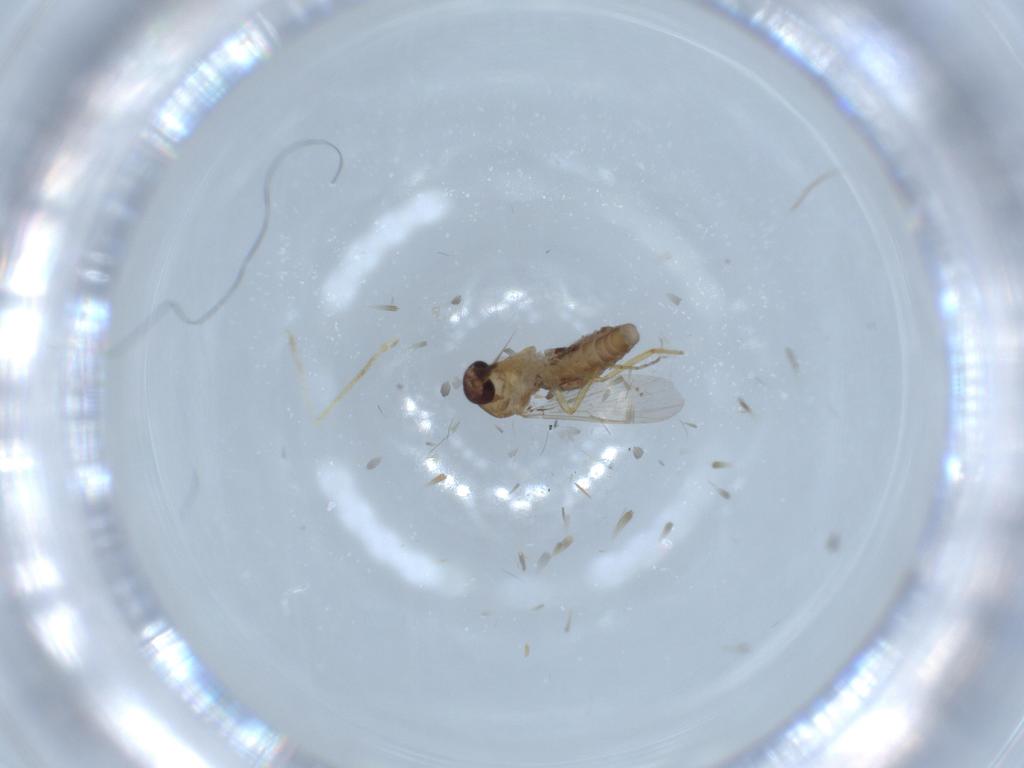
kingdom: Animalia
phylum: Arthropoda
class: Insecta
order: Diptera
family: Ceratopogonidae
